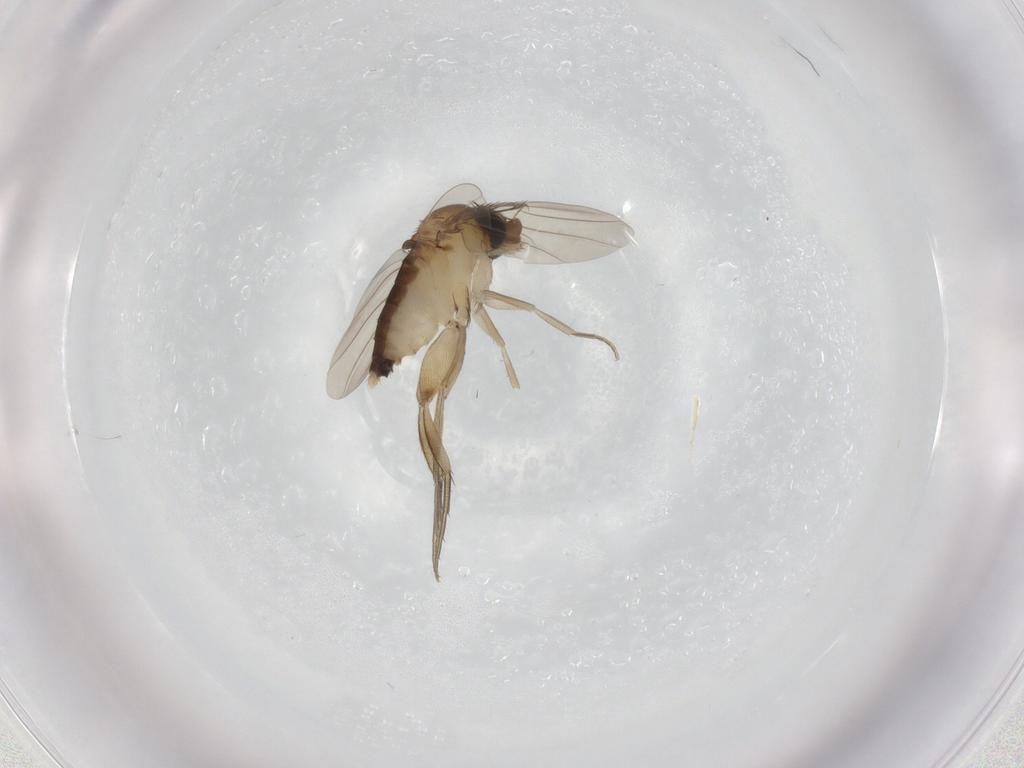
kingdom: Animalia
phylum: Arthropoda
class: Insecta
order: Diptera
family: Phoridae
